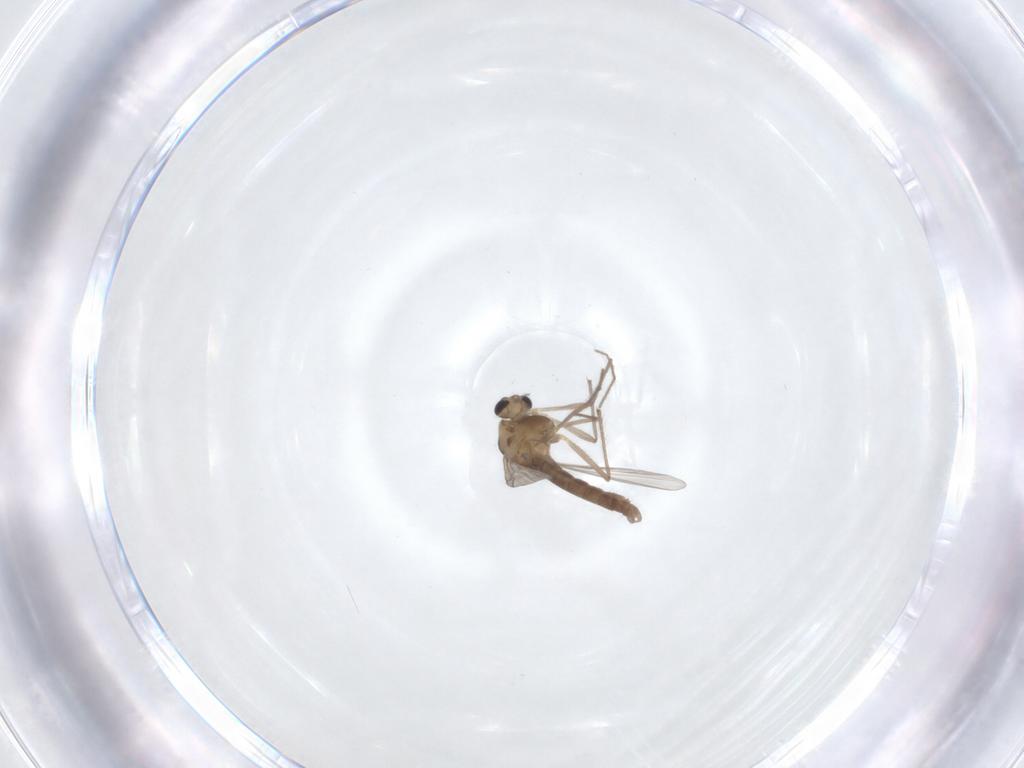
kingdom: Animalia
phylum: Arthropoda
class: Insecta
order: Diptera
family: Chironomidae
